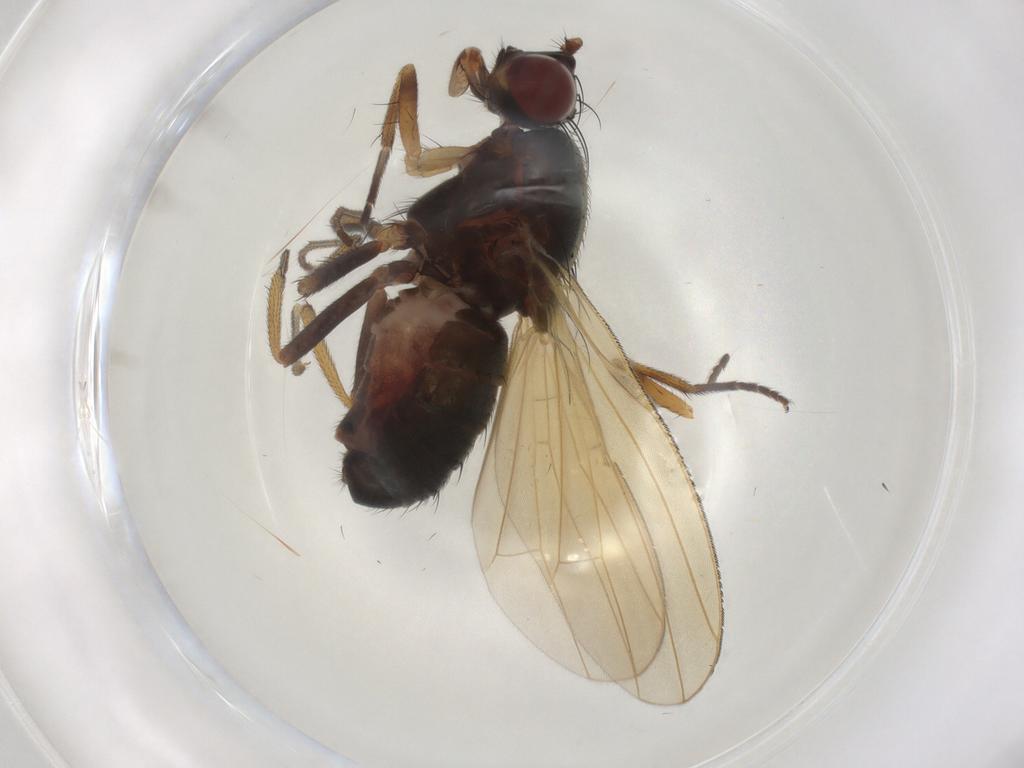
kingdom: Animalia
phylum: Arthropoda
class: Insecta
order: Diptera
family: Muscidae
